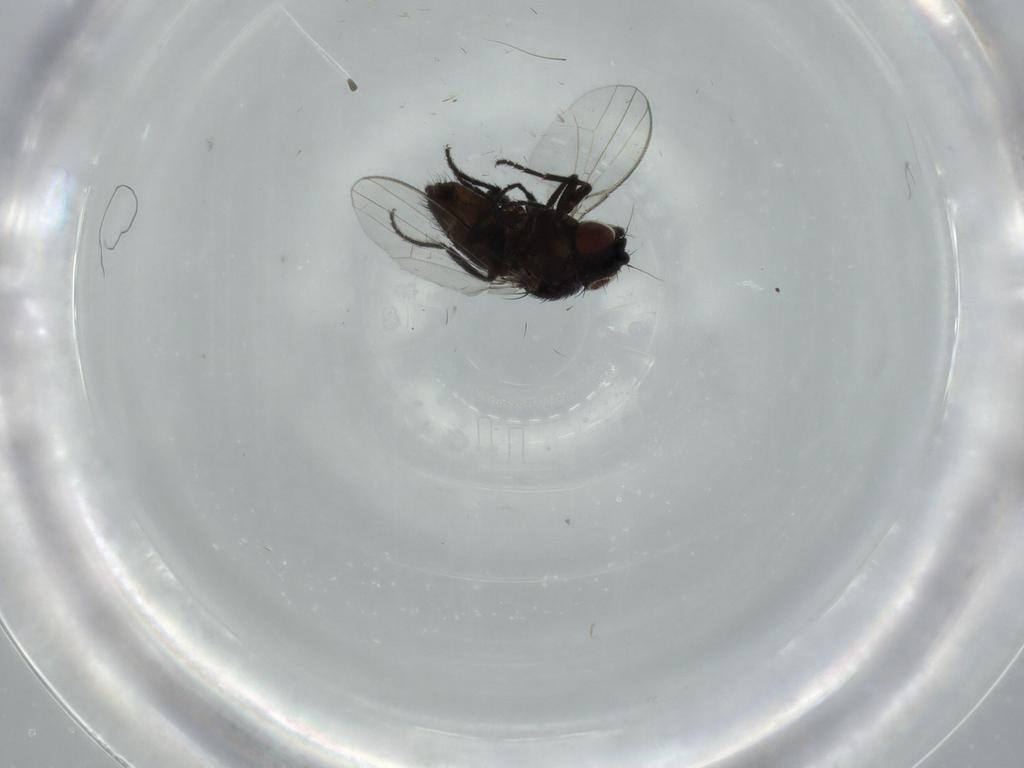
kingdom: Animalia
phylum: Arthropoda
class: Insecta
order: Diptera
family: Milichiidae
